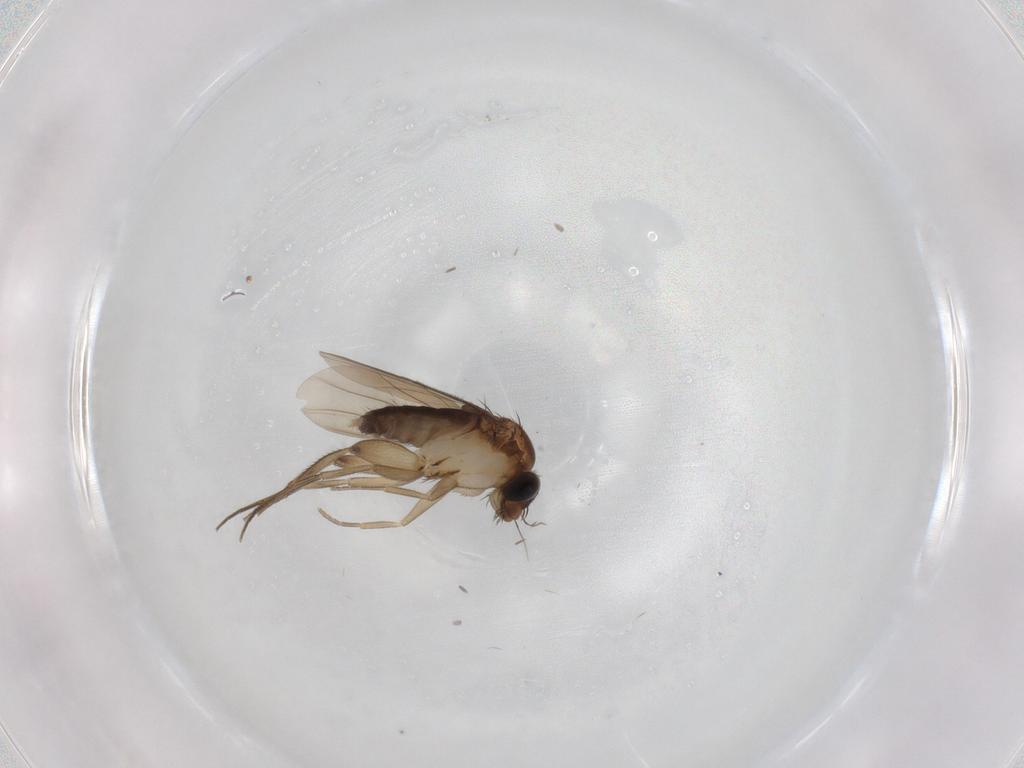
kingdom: Animalia
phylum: Arthropoda
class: Insecta
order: Diptera
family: Phoridae
